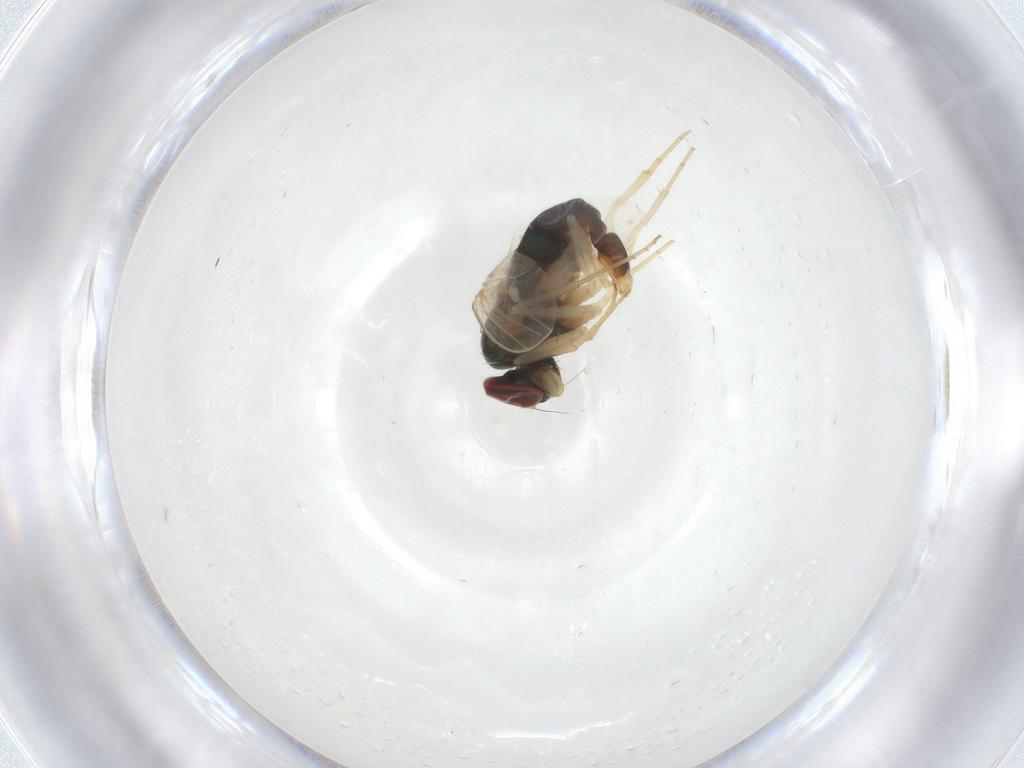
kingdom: Animalia
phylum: Arthropoda
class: Insecta
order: Diptera
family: Dolichopodidae
